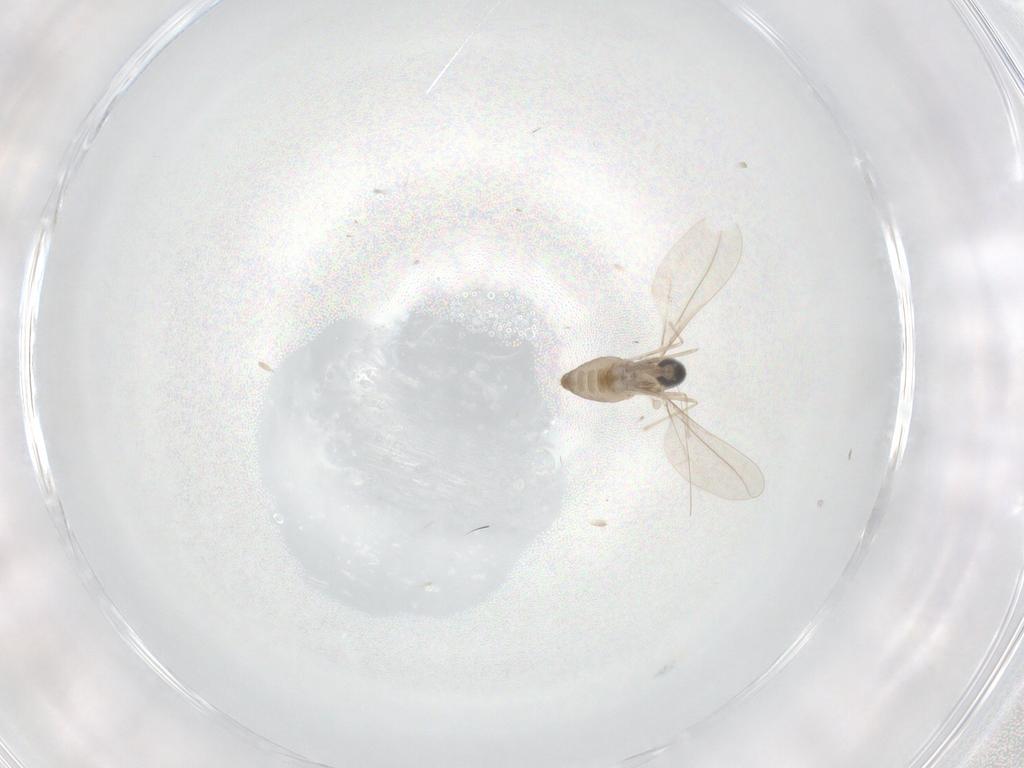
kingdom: Animalia
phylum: Arthropoda
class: Insecta
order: Diptera
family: Cecidomyiidae
